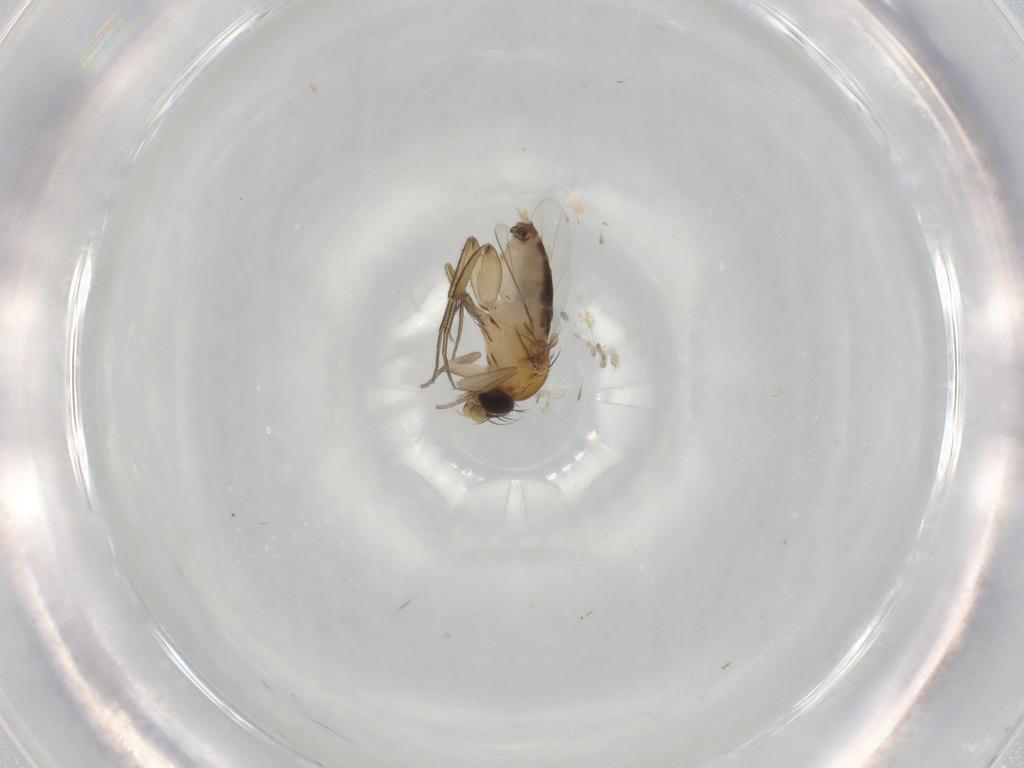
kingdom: Animalia
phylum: Arthropoda
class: Insecta
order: Diptera
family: Phoridae
